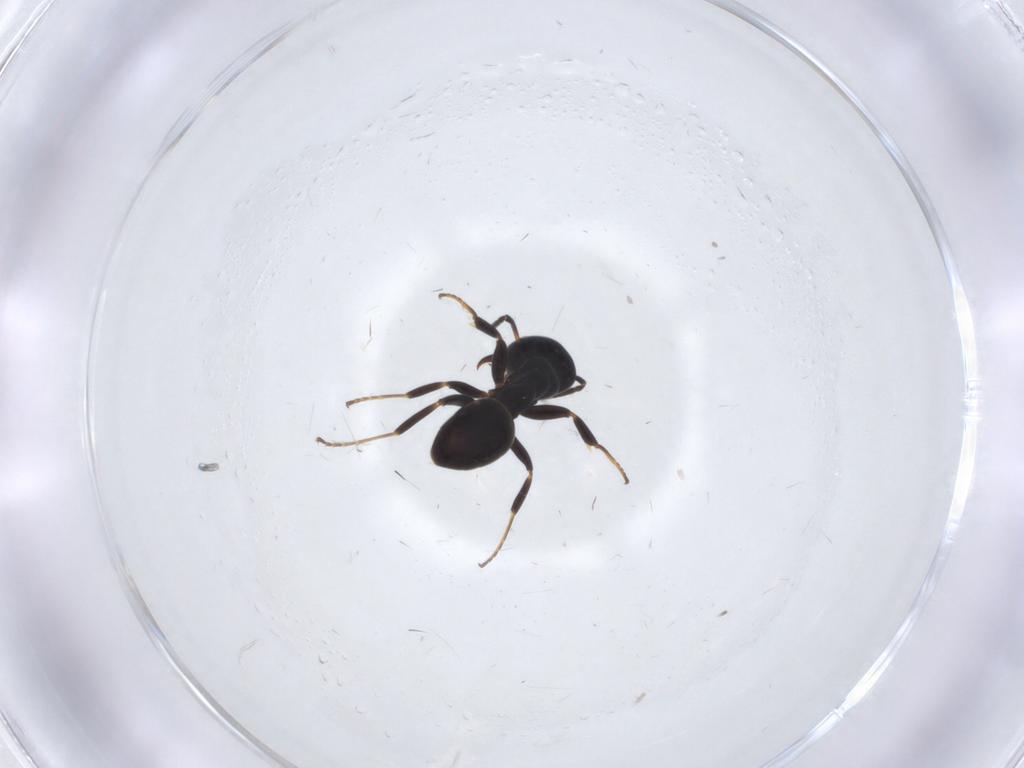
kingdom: Animalia
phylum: Arthropoda
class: Insecta
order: Hymenoptera
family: Formicidae
